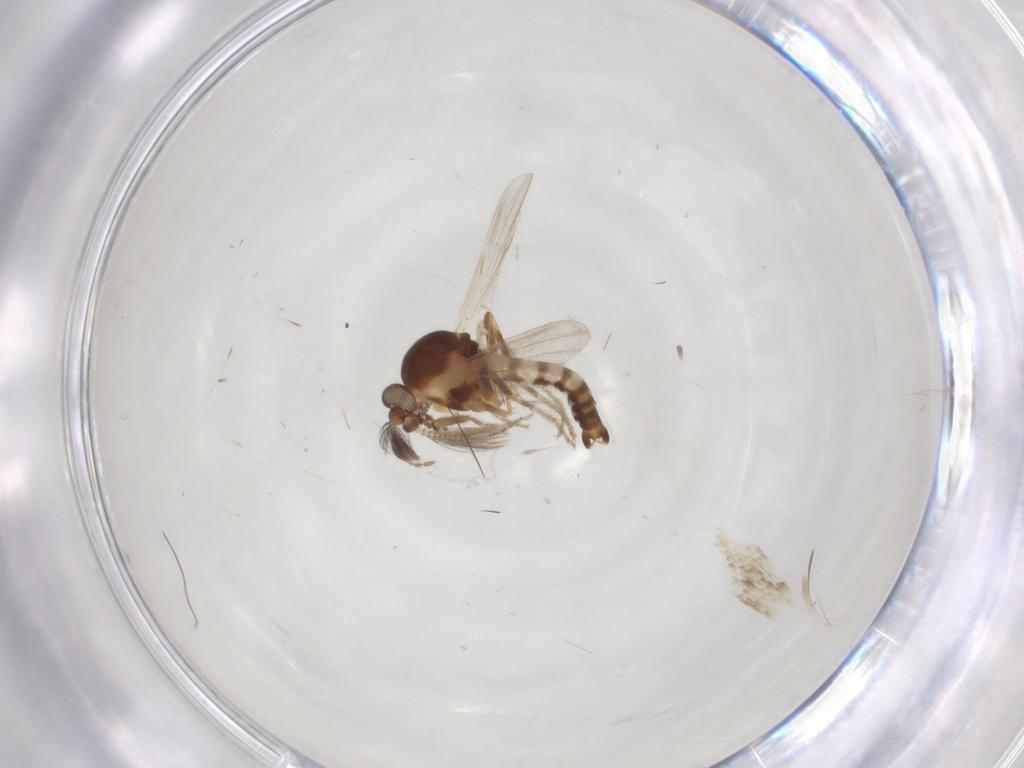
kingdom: Animalia
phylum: Arthropoda
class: Insecta
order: Diptera
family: Ceratopogonidae
